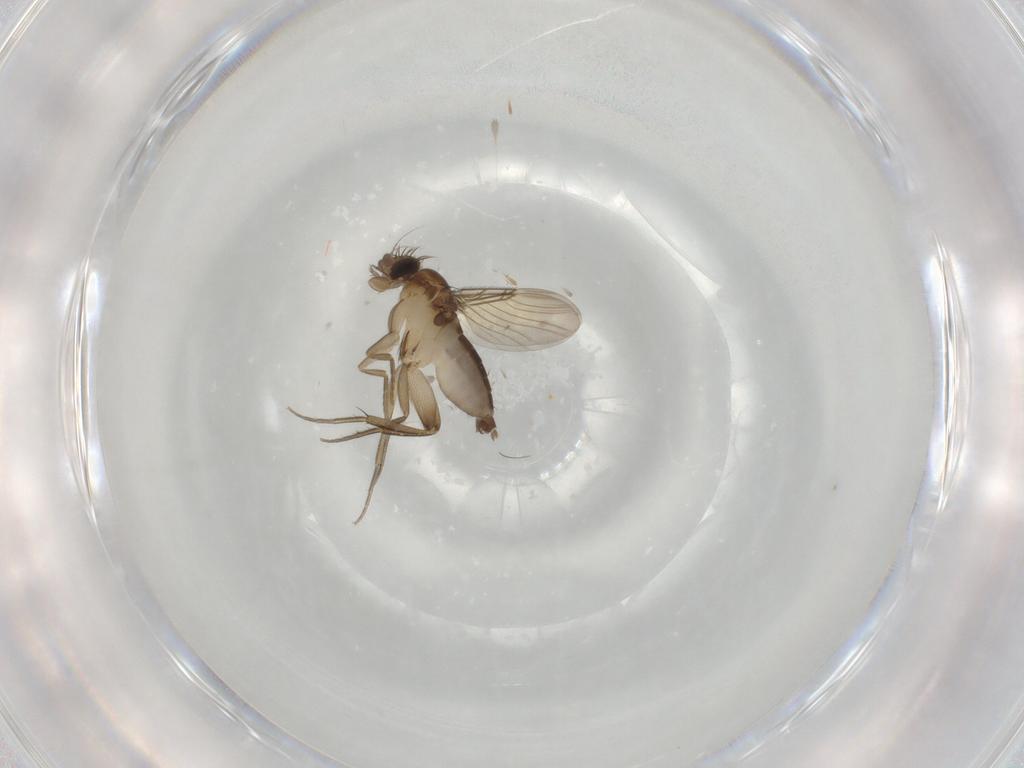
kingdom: Animalia
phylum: Arthropoda
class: Insecta
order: Diptera
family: Phoridae
